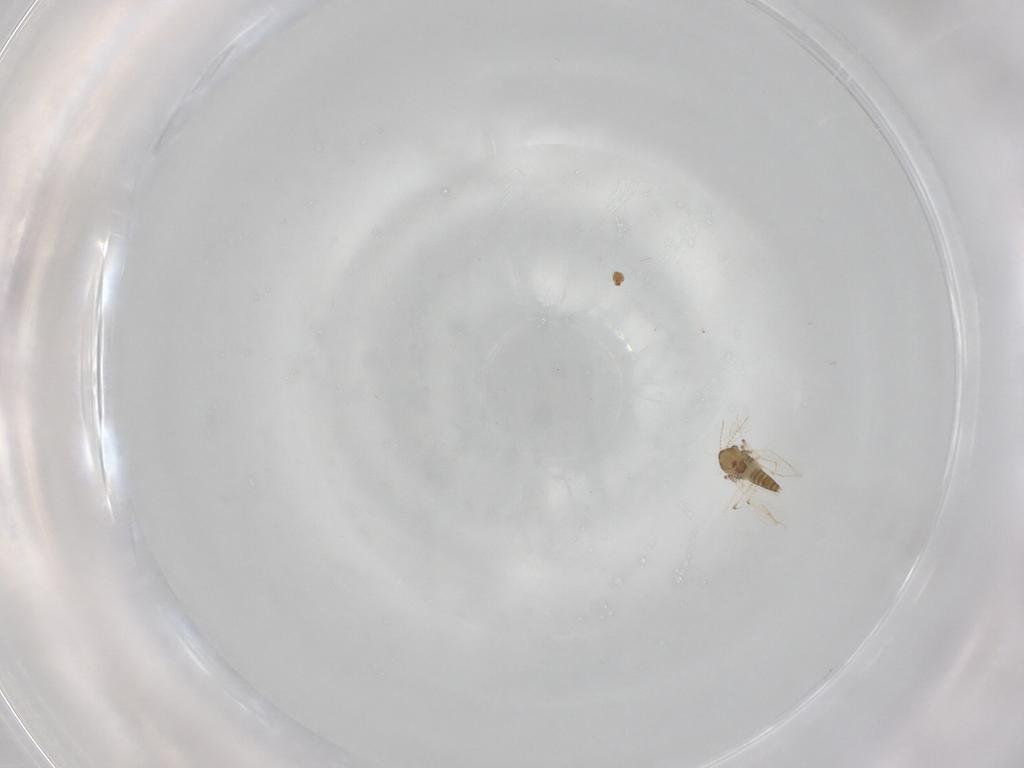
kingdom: Animalia
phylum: Arthropoda
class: Insecta
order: Diptera
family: Chironomidae
